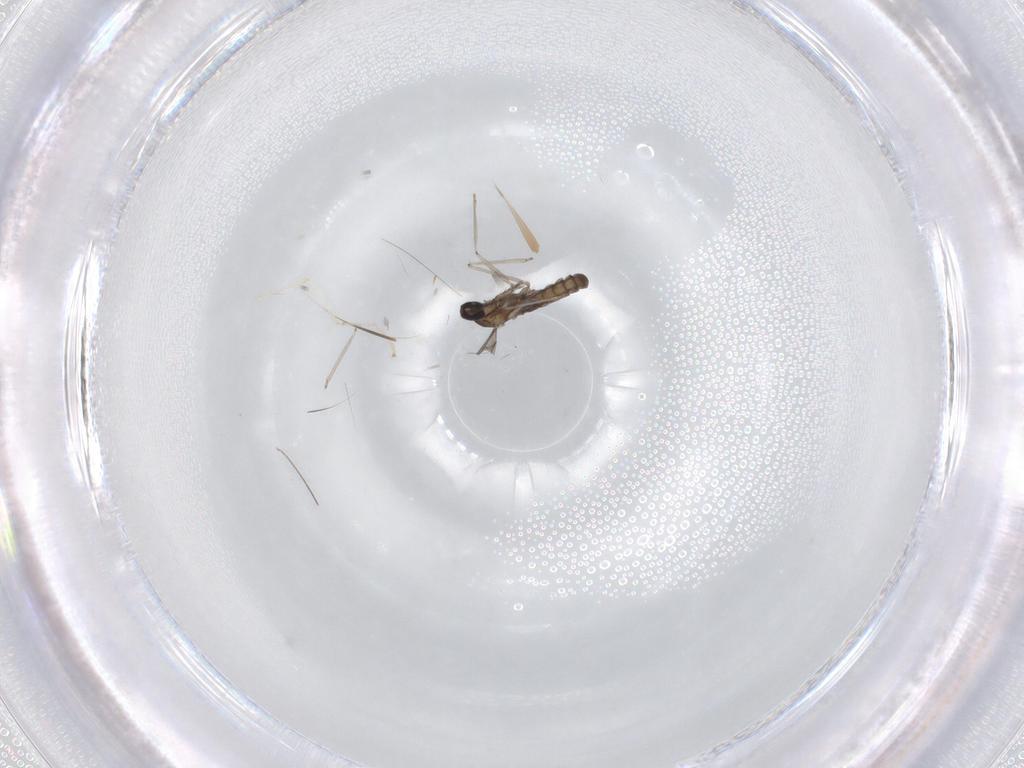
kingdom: Animalia
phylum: Arthropoda
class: Insecta
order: Diptera
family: Cecidomyiidae
